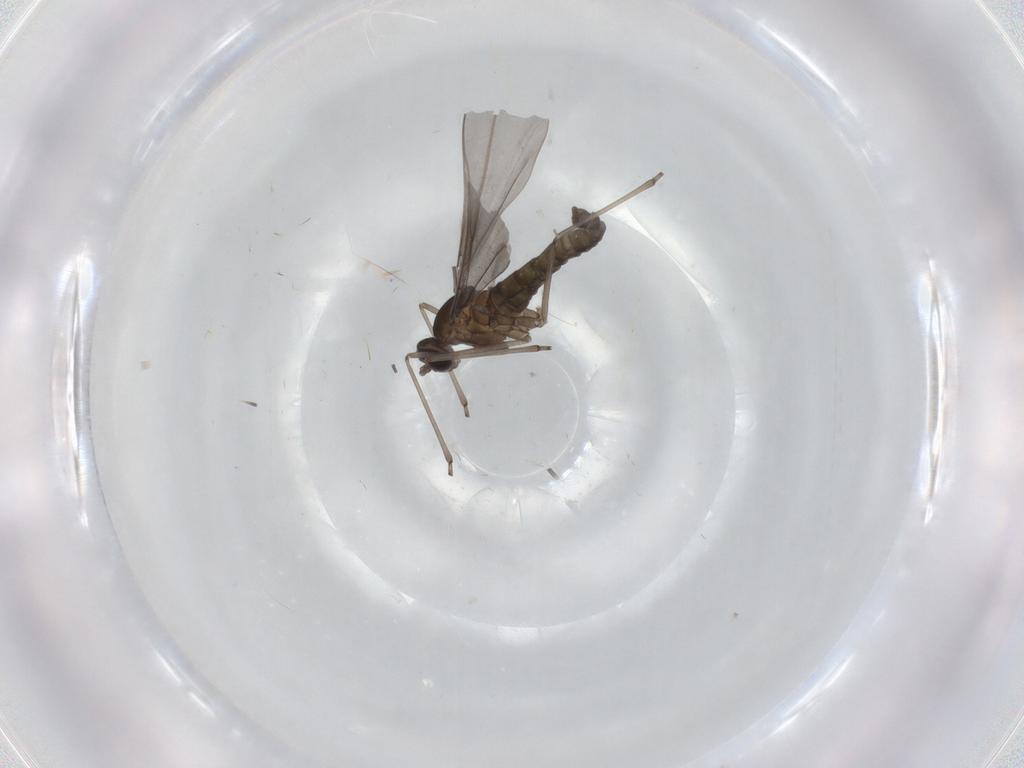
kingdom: Animalia
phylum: Arthropoda
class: Insecta
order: Diptera
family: Cecidomyiidae
